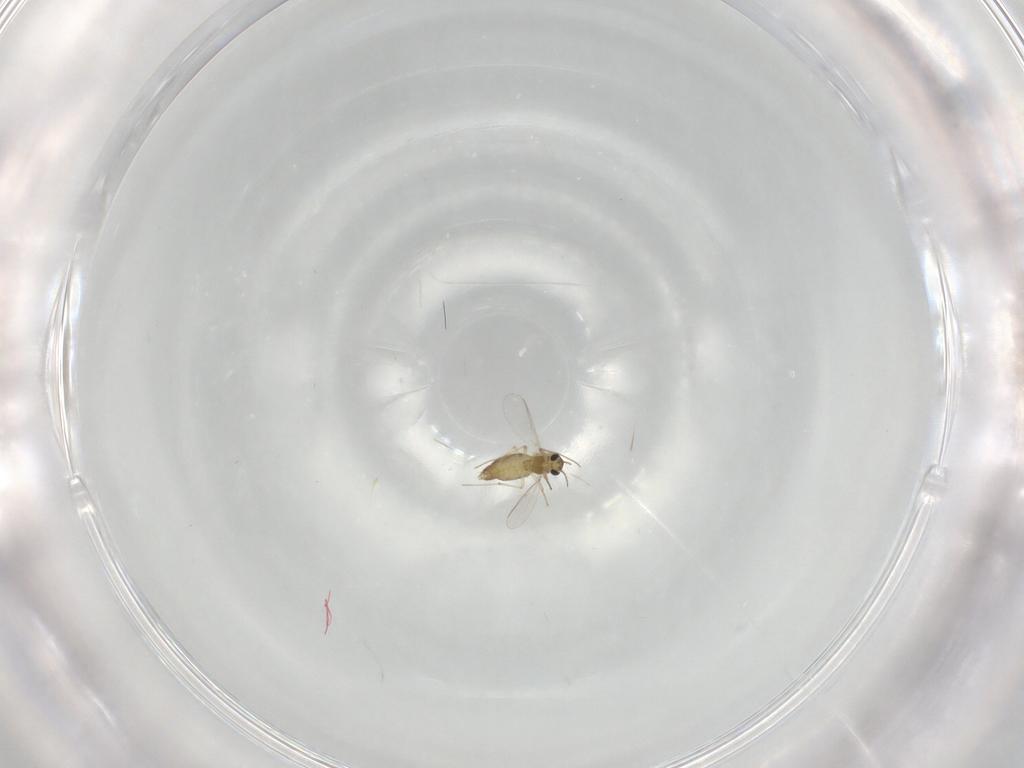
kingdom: Animalia
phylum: Arthropoda
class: Insecta
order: Diptera
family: Chironomidae
